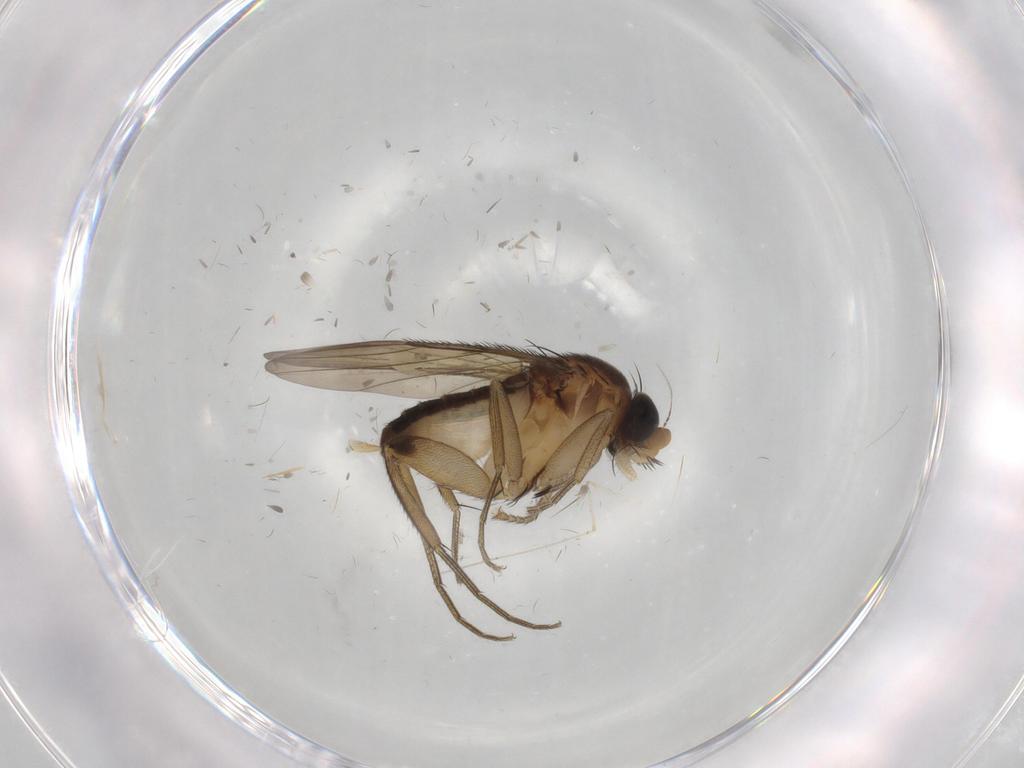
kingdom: Animalia
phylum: Arthropoda
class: Insecta
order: Diptera
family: Phoridae
